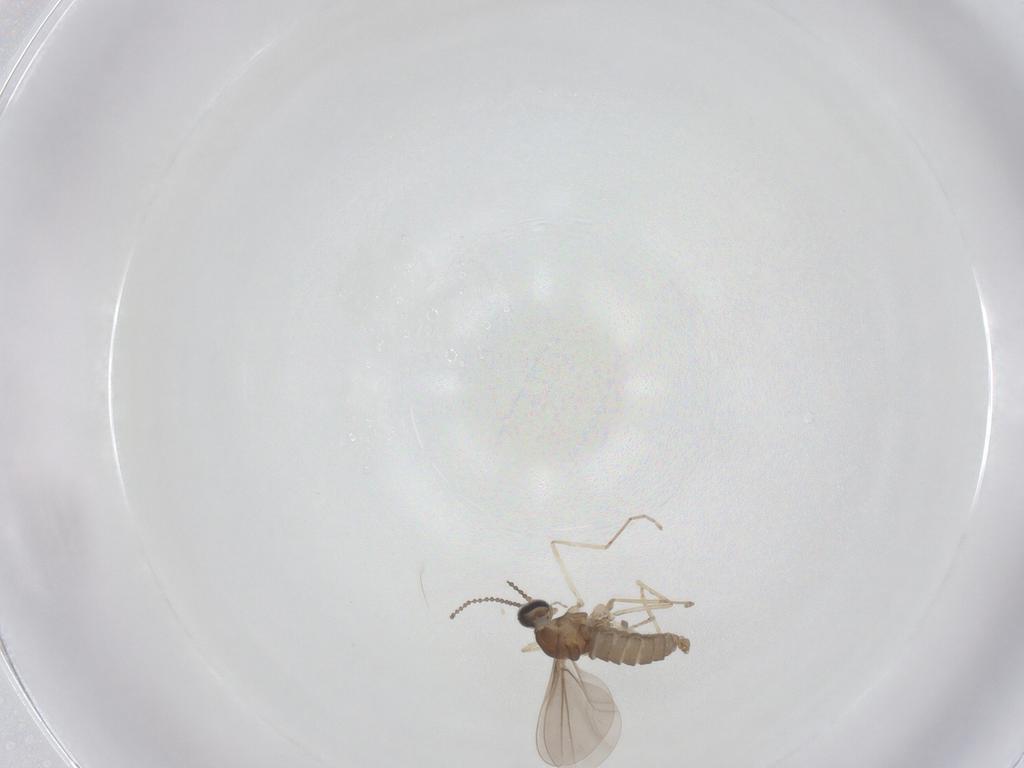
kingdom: Animalia
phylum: Arthropoda
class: Insecta
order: Diptera
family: Cecidomyiidae
